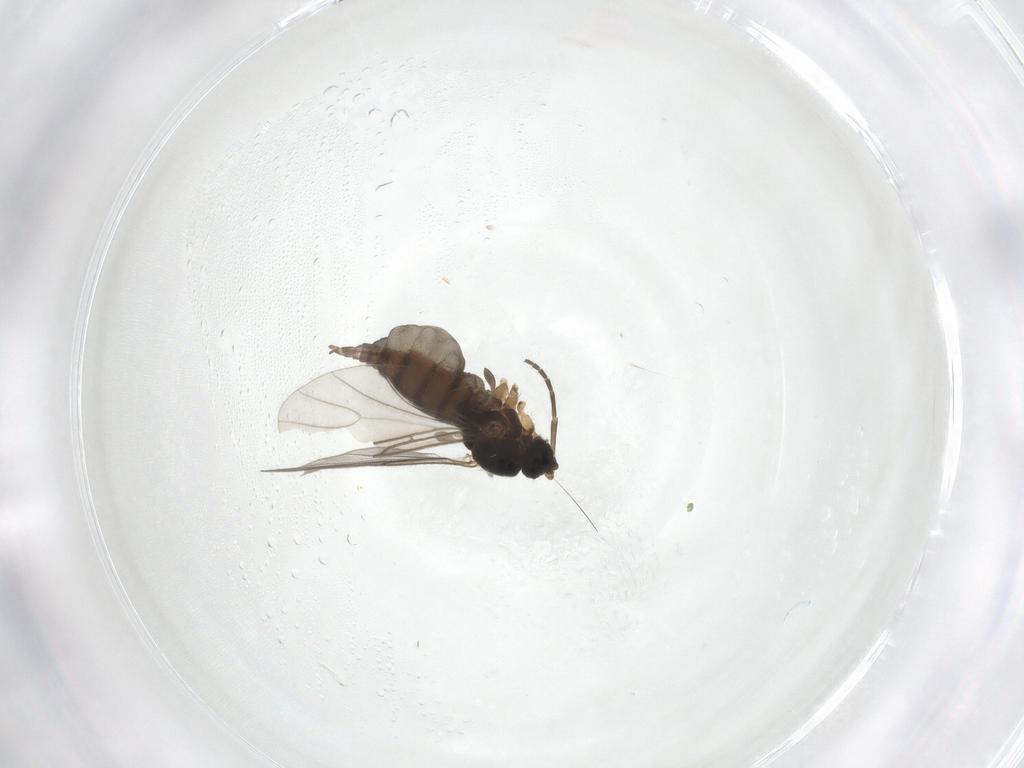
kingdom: Animalia
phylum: Arthropoda
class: Insecta
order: Diptera
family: Sciaridae
